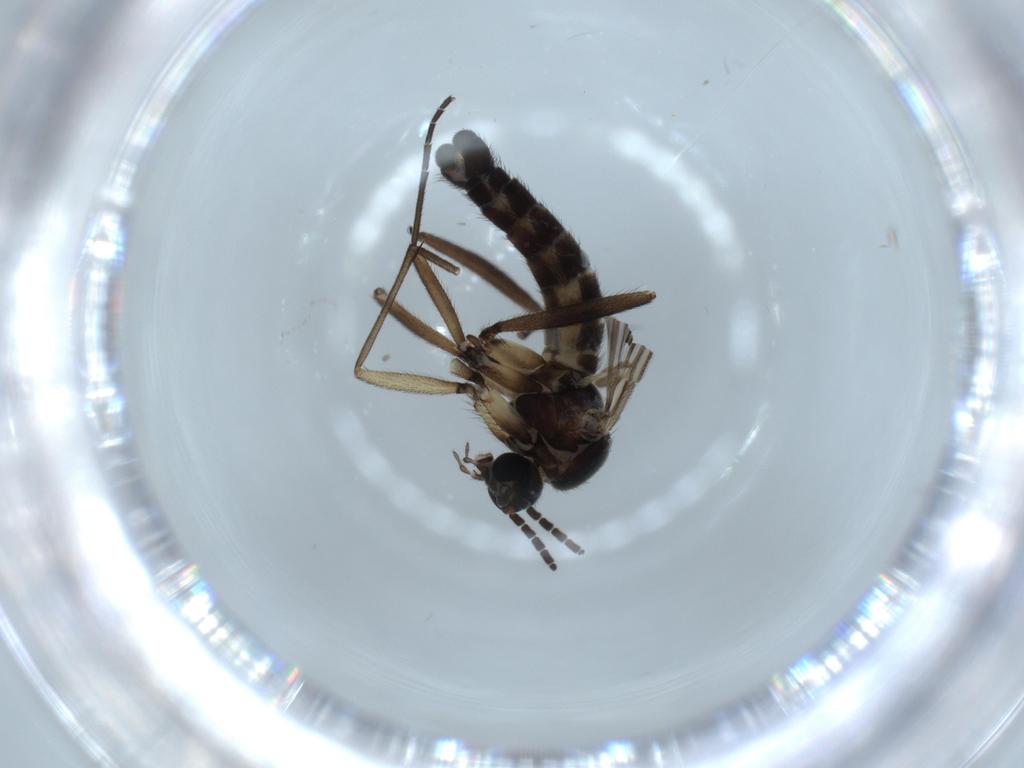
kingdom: Animalia
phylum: Arthropoda
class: Insecta
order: Diptera
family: Sciaridae
